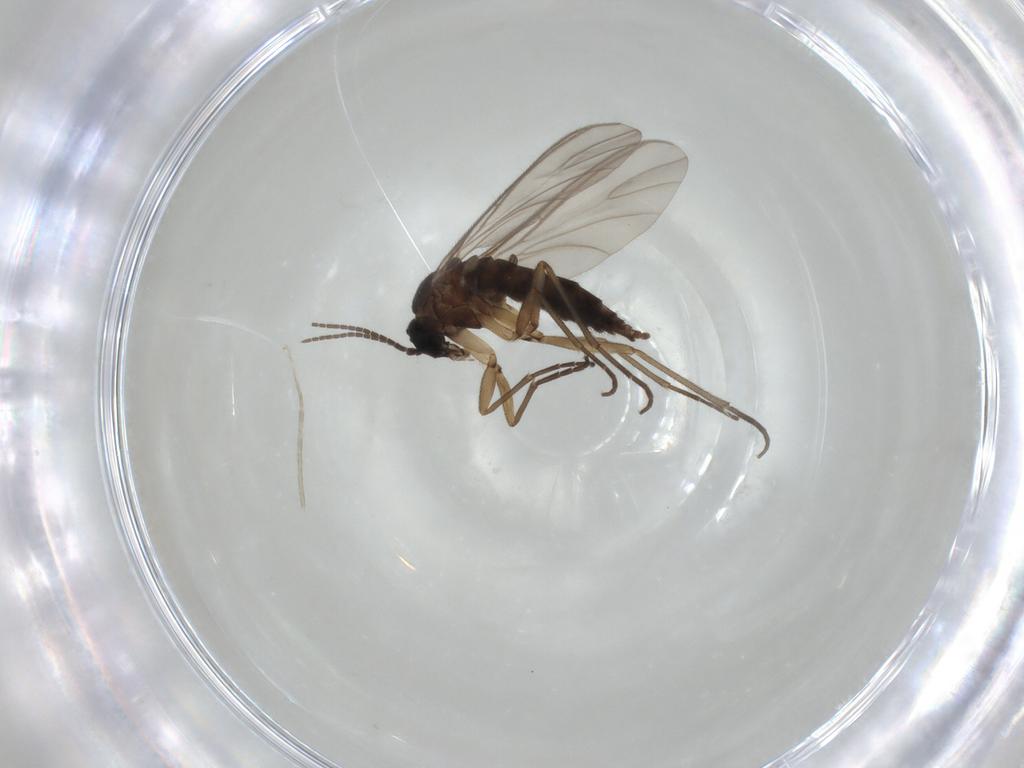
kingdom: Animalia
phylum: Arthropoda
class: Insecta
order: Diptera
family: Sciaridae
